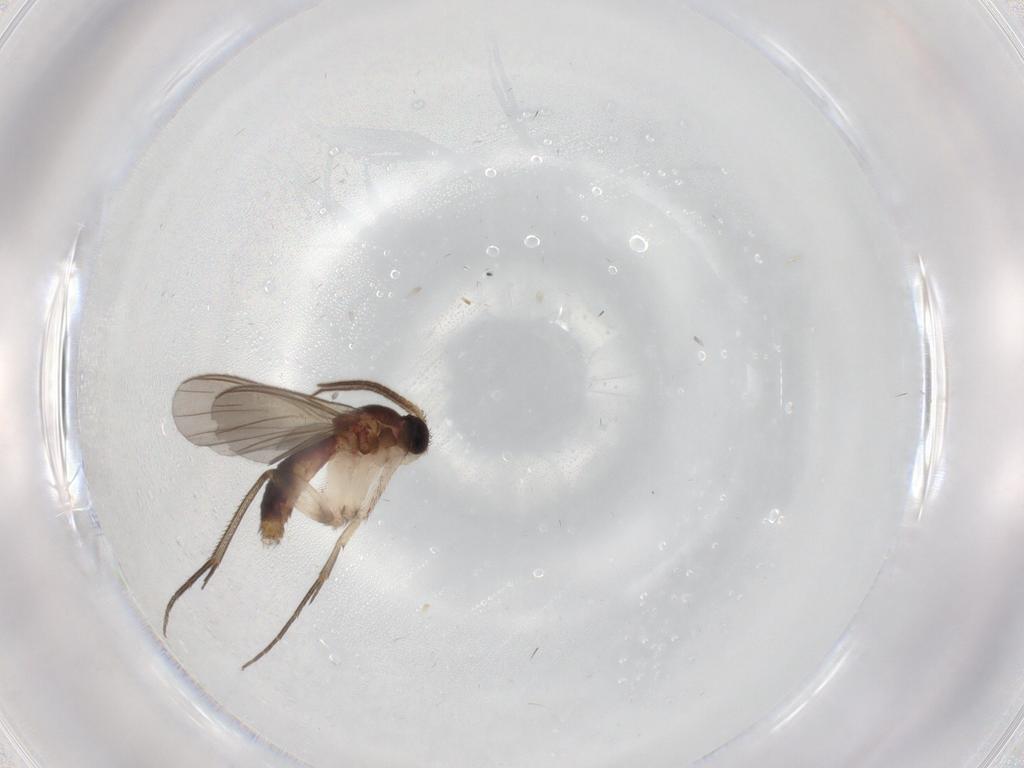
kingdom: Animalia
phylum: Arthropoda
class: Insecta
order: Diptera
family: Mycetophilidae
